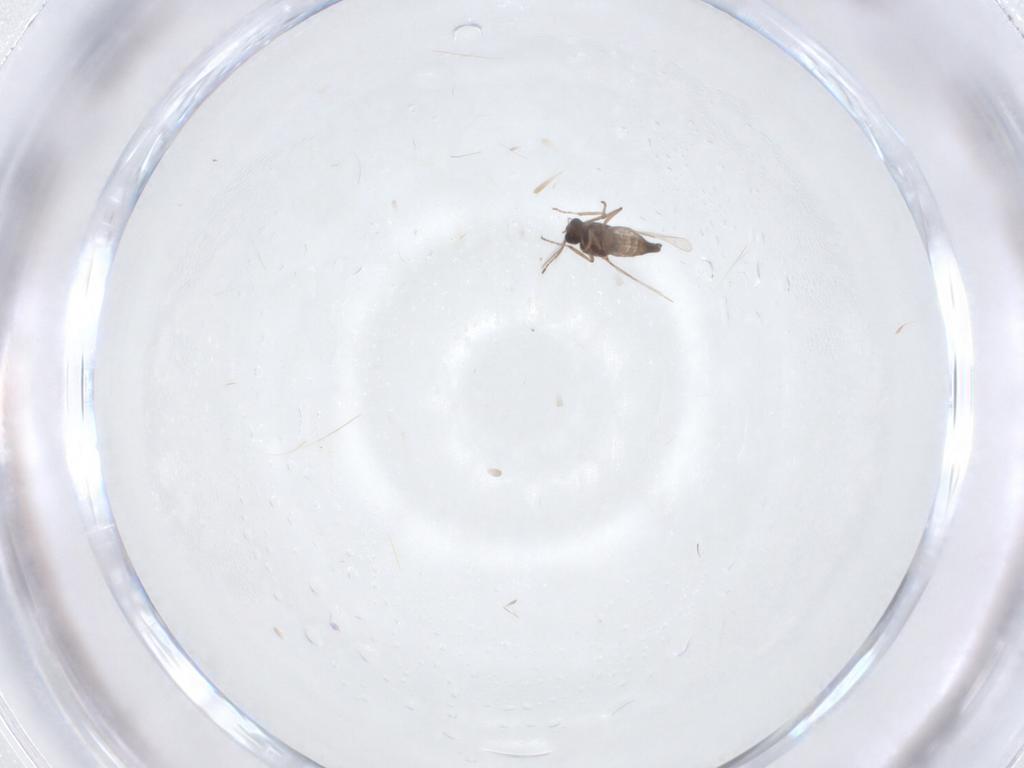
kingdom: Animalia
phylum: Arthropoda
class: Insecta
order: Diptera
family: Ceratopogonidae
